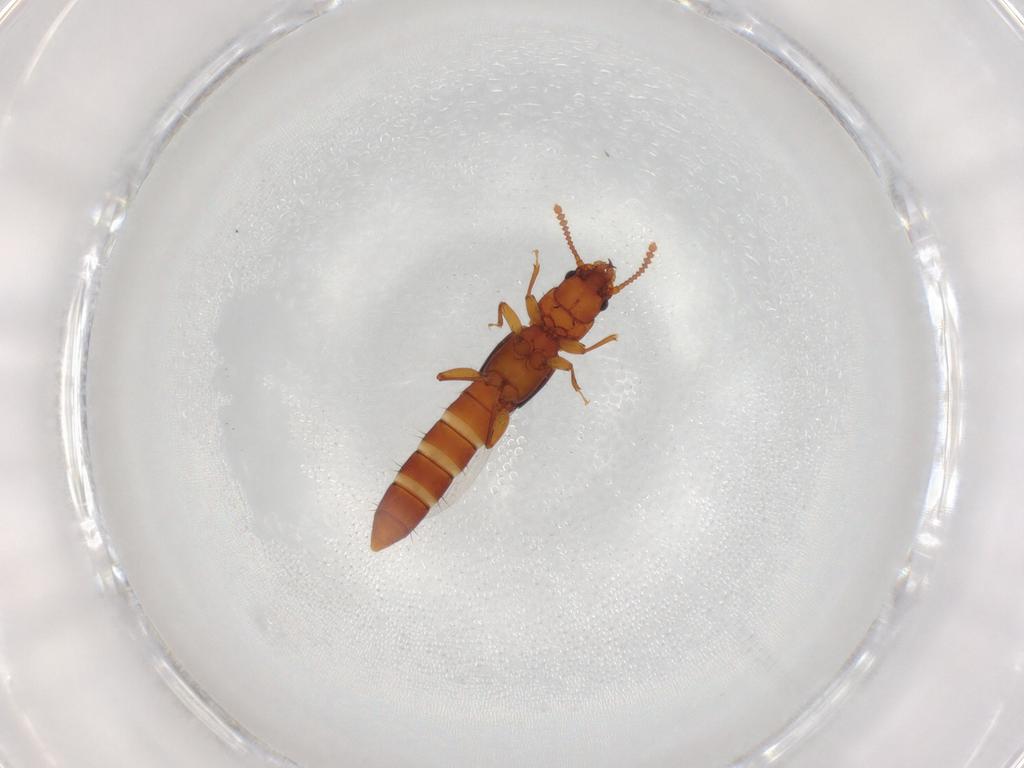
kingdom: Animalia
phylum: Arthropoda
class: Insecta
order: Coleoptera
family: Staphylinidae
